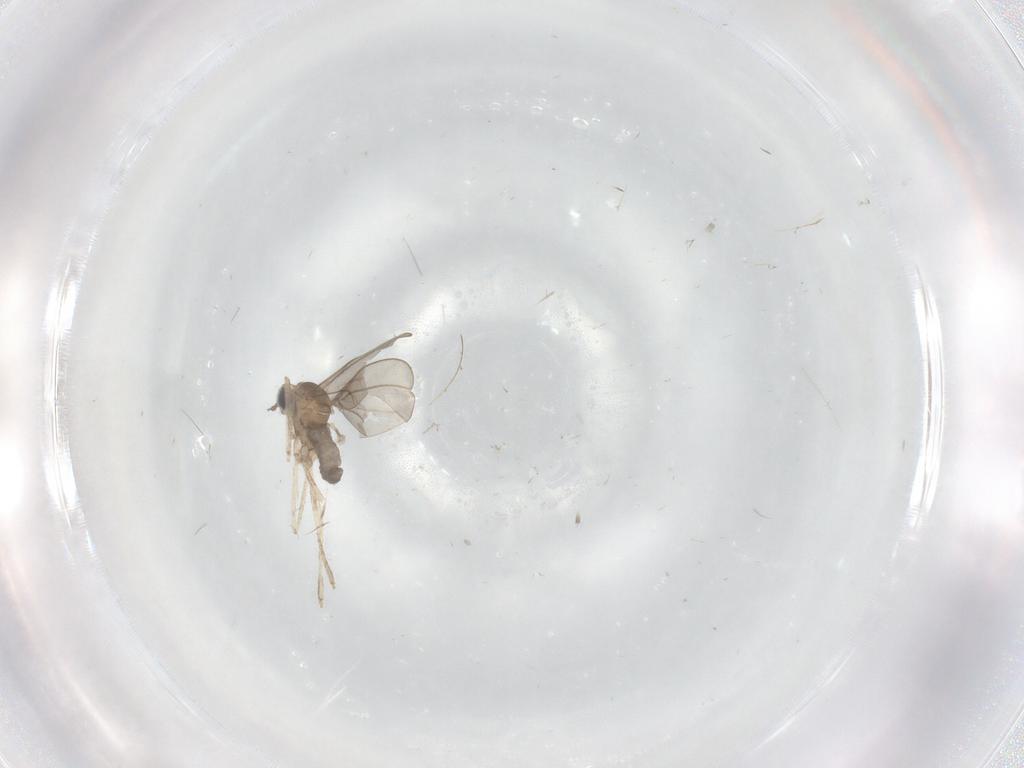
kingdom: Animalia
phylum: Arthropoda
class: Insecta
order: Diptera
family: Cecidomyiidae
